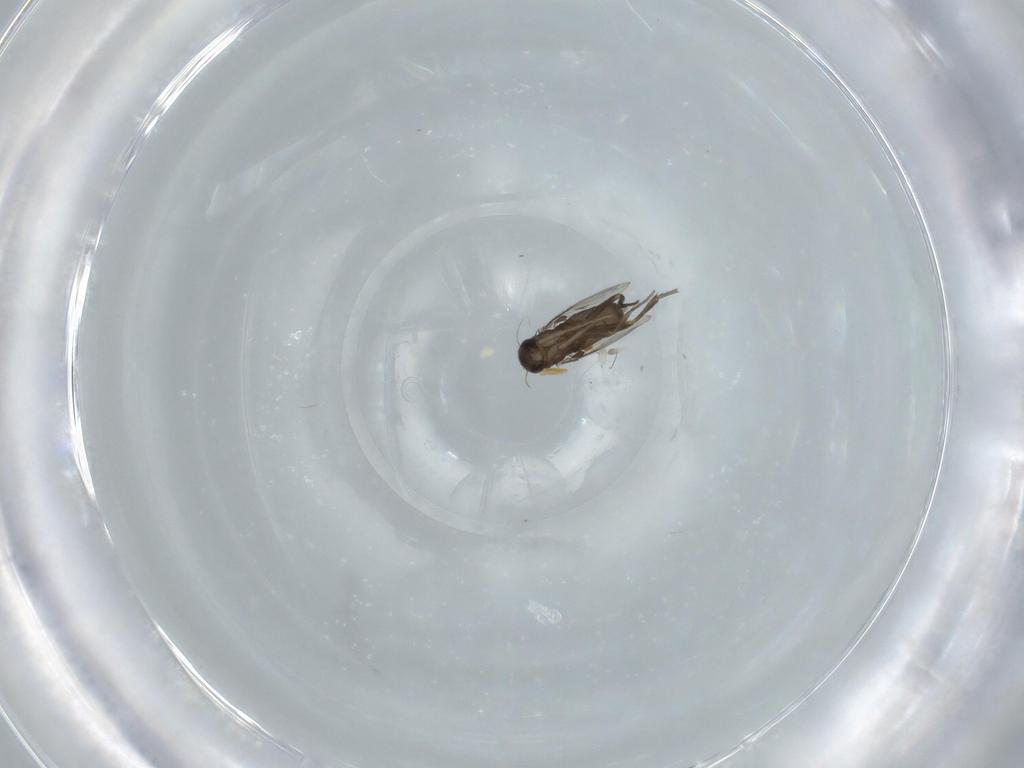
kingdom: Animalia
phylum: Arthropoda
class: Insecta
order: Diptera
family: Phoridae
